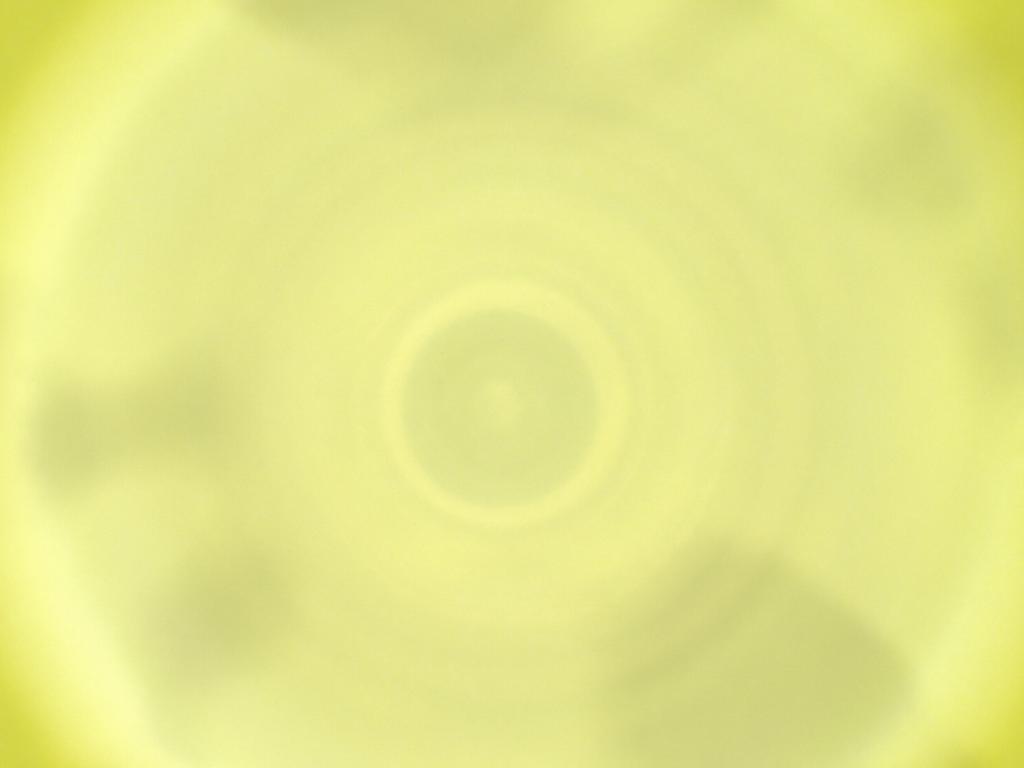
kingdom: Animalia
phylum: Arthropoda
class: Insecta
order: Diptera
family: Cecidomyiidae
